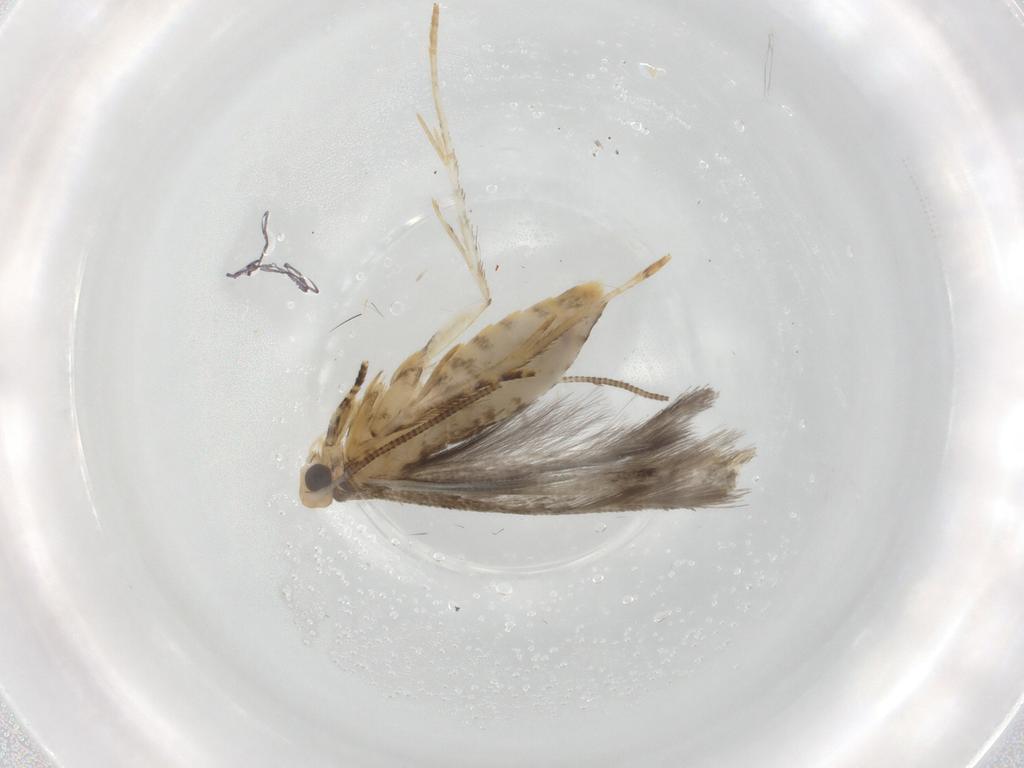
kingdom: Animalia
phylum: Arthropoda
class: Insecta
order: Lepidoptera
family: Tineidae
